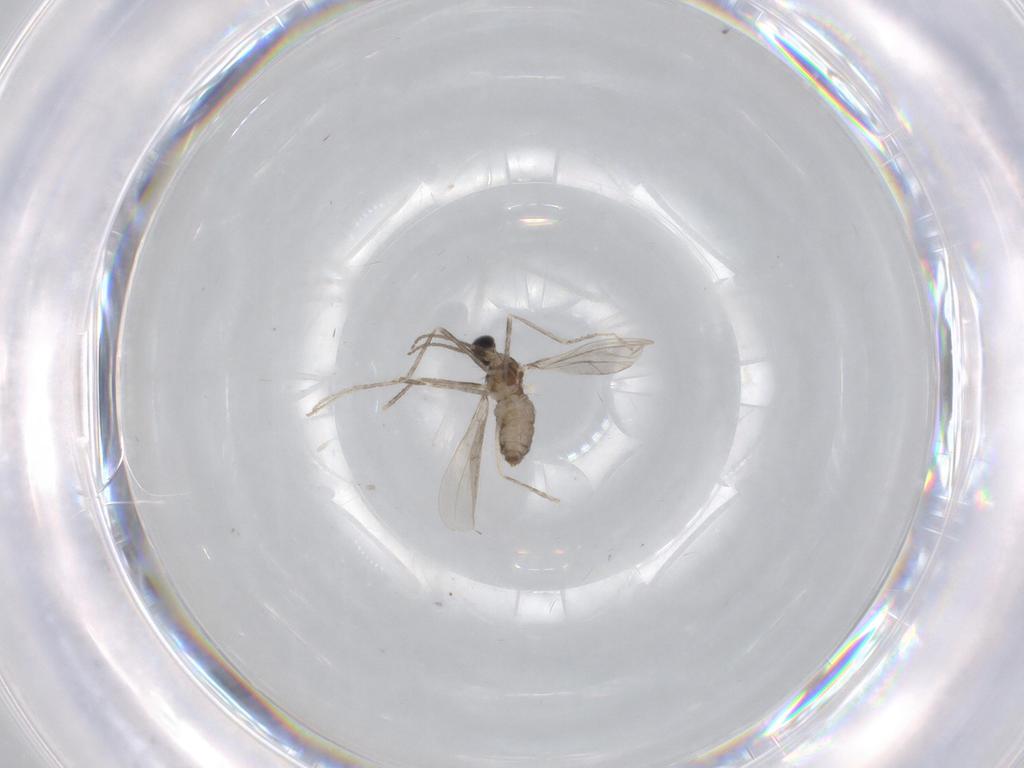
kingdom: Animalia
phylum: Arthropoda
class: Insecta
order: Diptera
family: Cecidomyiidae
